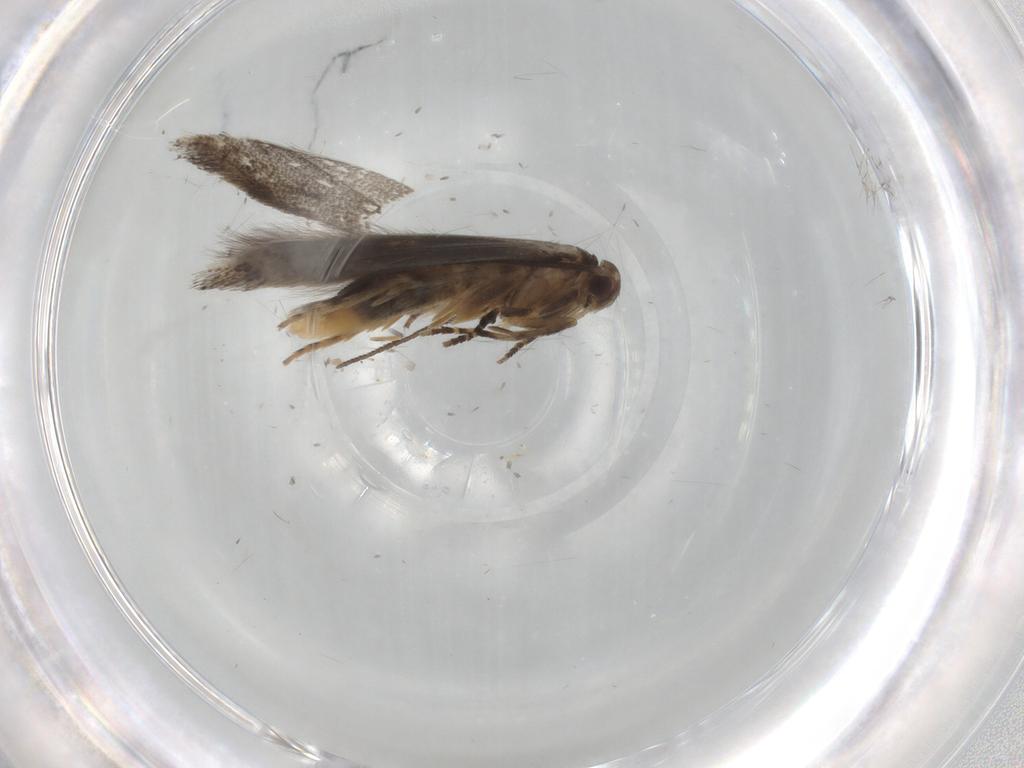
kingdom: Animalia
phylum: Arthropoda
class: Insecta
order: Lepidoptera
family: Elachistidae
